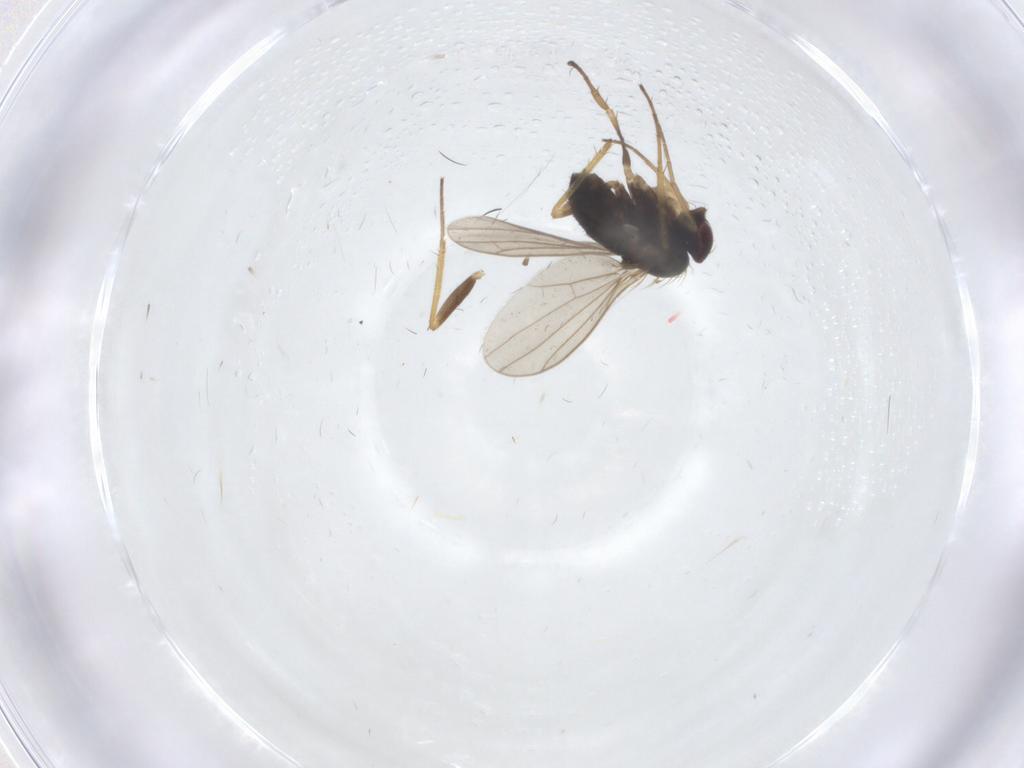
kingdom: Animalia
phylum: Arthropoda
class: Insecta
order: Diptera
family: Dolichopodidae
